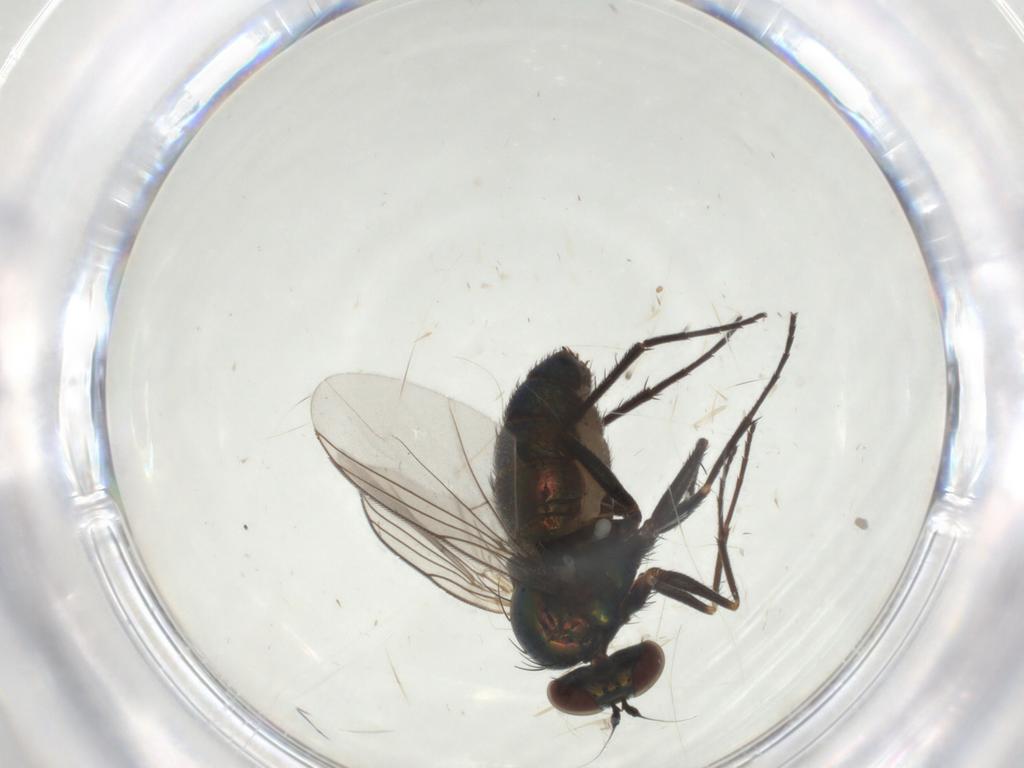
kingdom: Animalia
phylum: Arthropoda
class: Insecta
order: Diptera
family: Dolichopodidae
